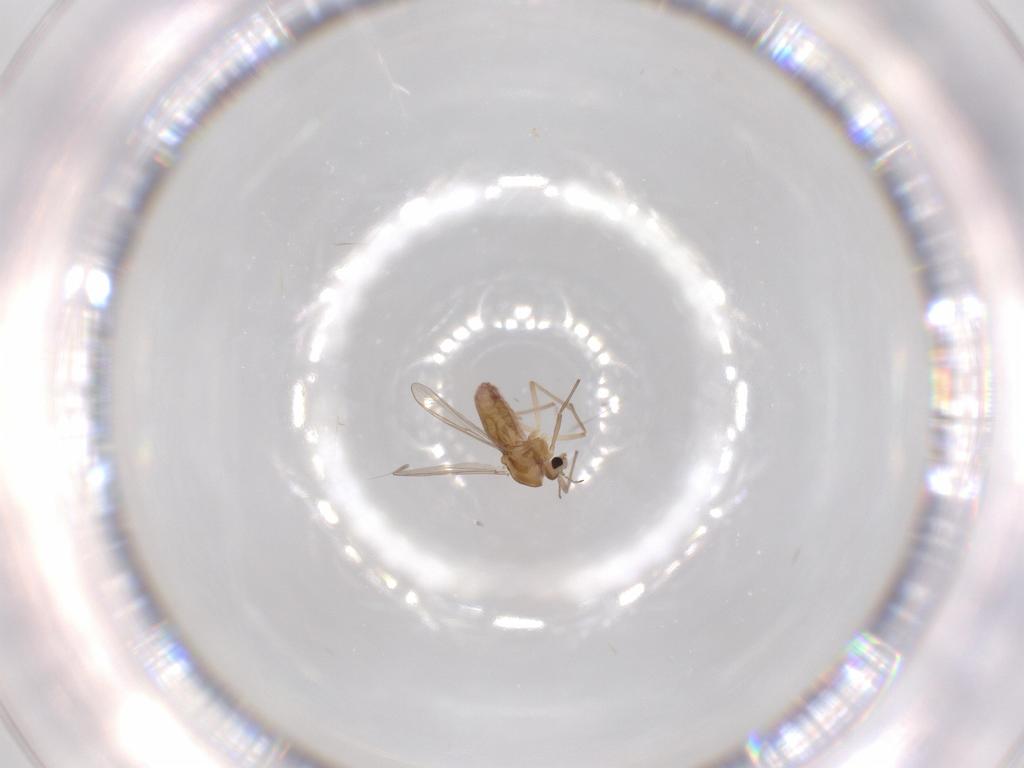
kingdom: Animalia
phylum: Arthropoda
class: Insecta
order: Diptera
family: Chironomidae
